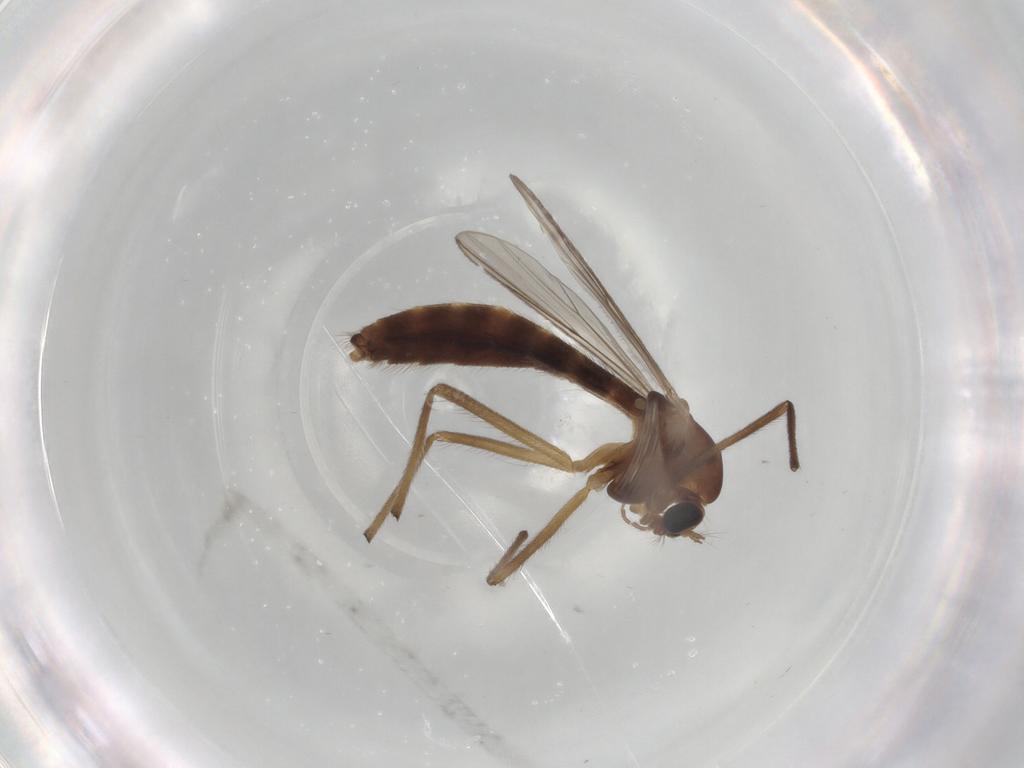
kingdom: Animalia
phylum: Arthropoda
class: Insecta
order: Diptera
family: Chironomidae
